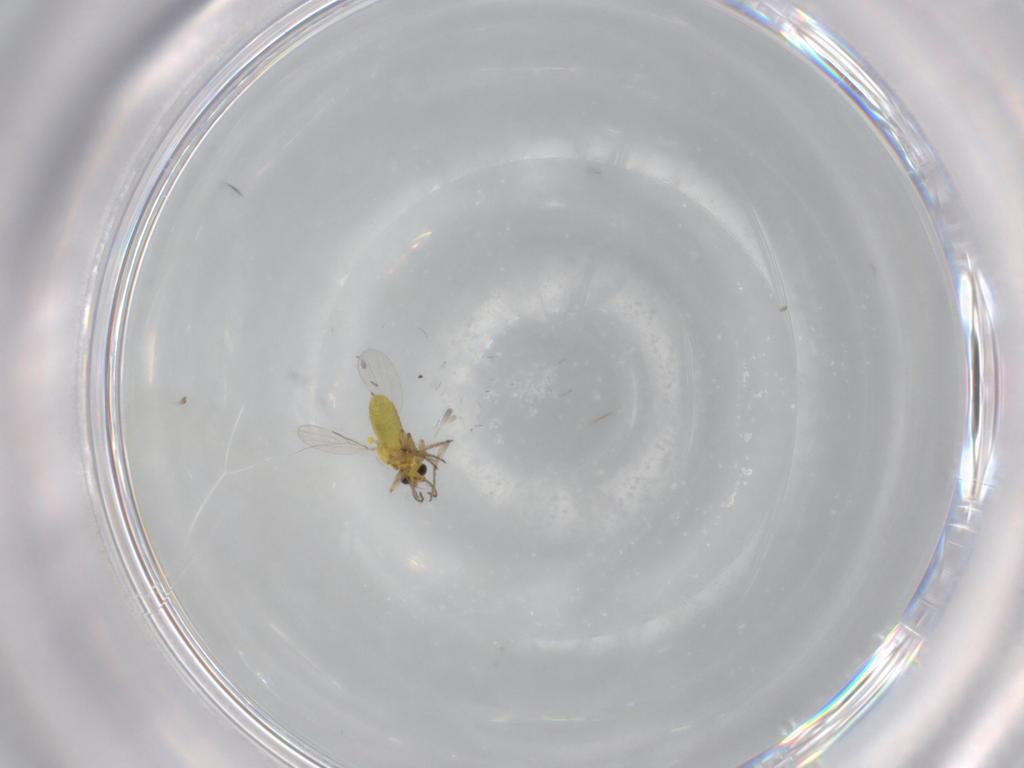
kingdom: Animalia
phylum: Arthropoda
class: Insecta
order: Diptera
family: Ceratopogonidae
